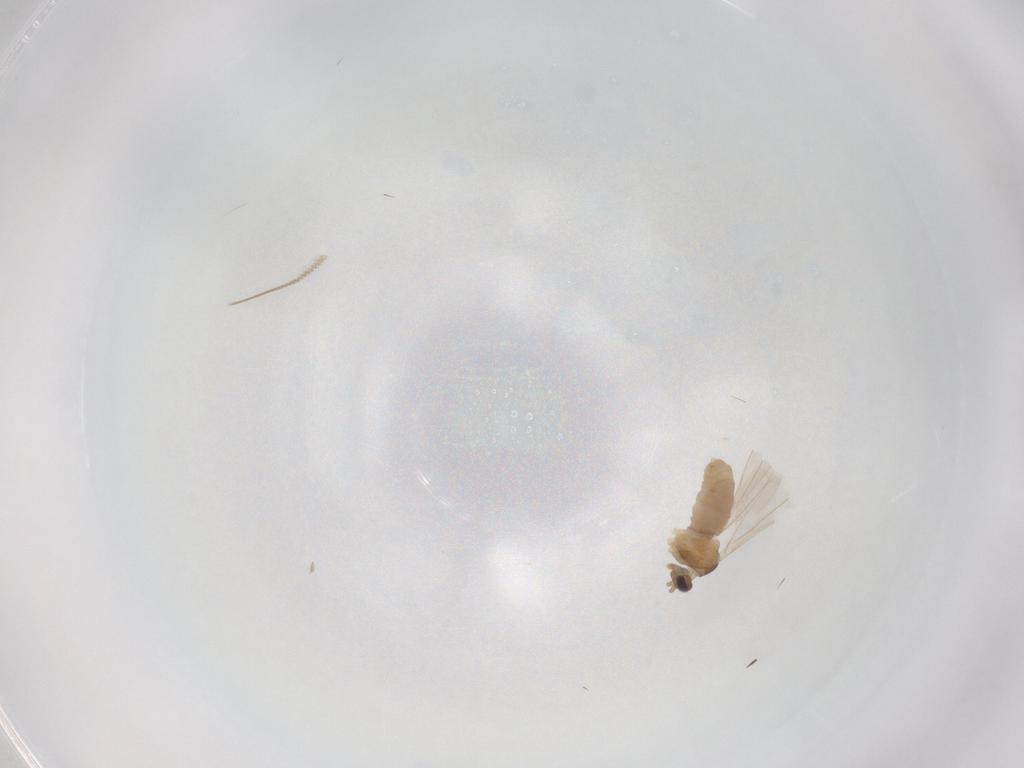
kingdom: Animalia
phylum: Arthropoda
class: Insecta
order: Diptera
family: Cecidomyiidae
